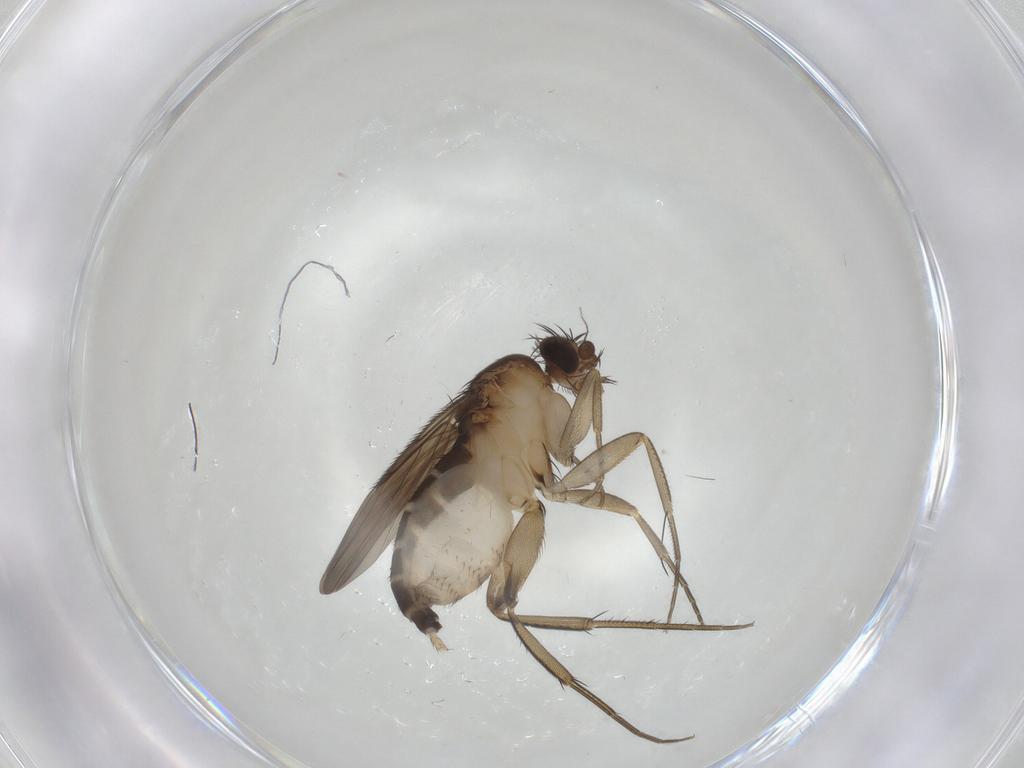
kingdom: Animalia
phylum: Arthropoda
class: Insecta
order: Diptera
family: Phoridae
